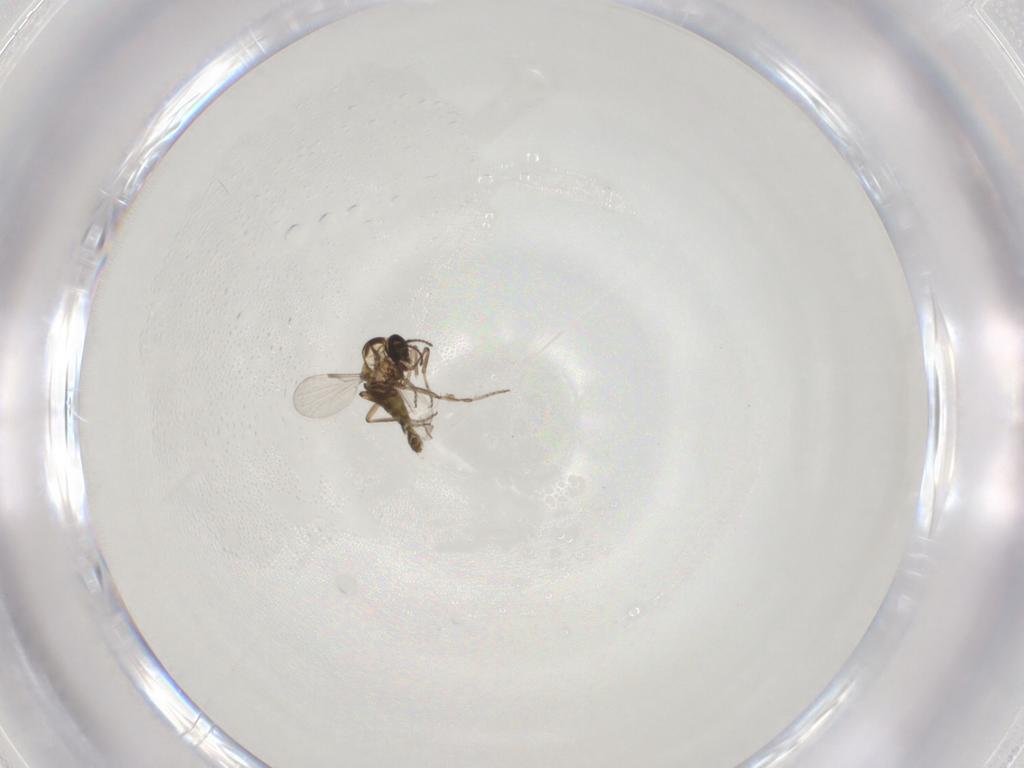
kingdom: Animalia
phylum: Arthropoda
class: Insecta
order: Diptera
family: Ceratopogonidae
